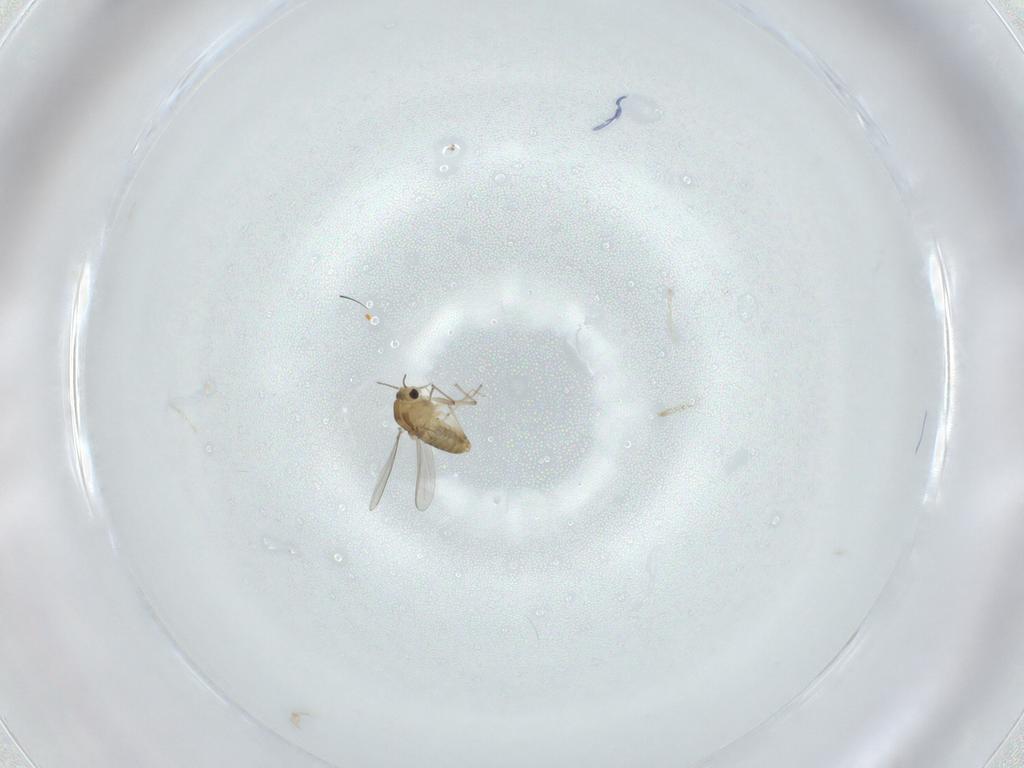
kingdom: Animalia
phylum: Arthropoda
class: Insecta
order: Diptera
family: Chironomidae
